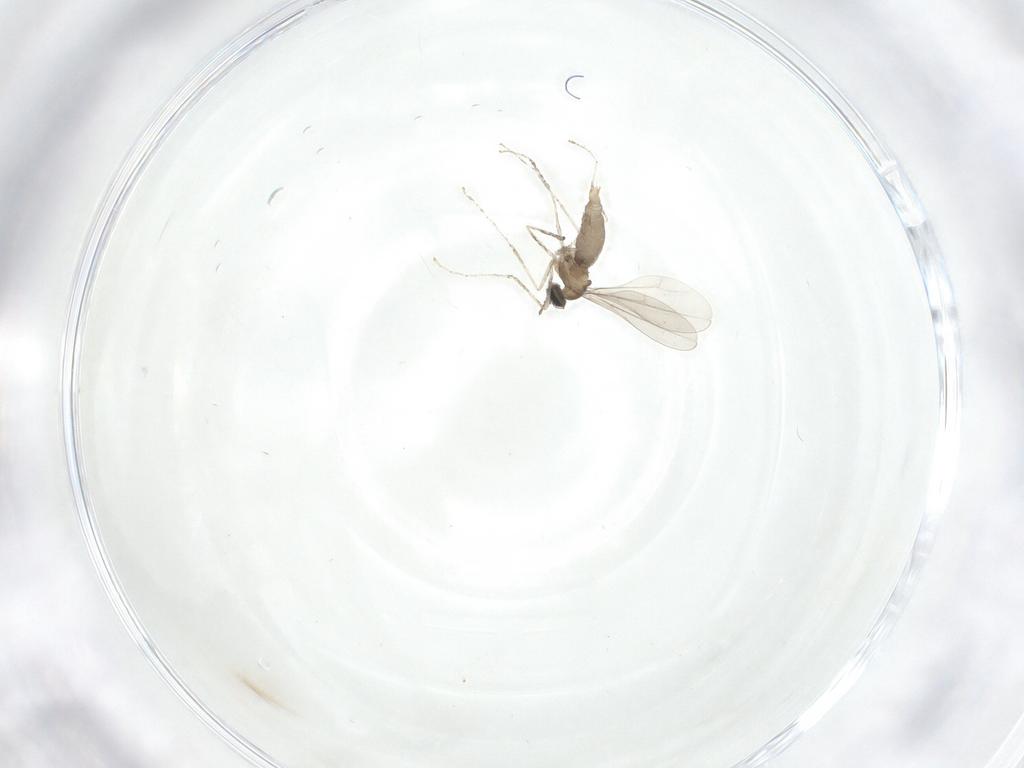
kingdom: Animalia
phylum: Arthropoda
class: Insecta
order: Diptera
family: Cecidomyiidae
